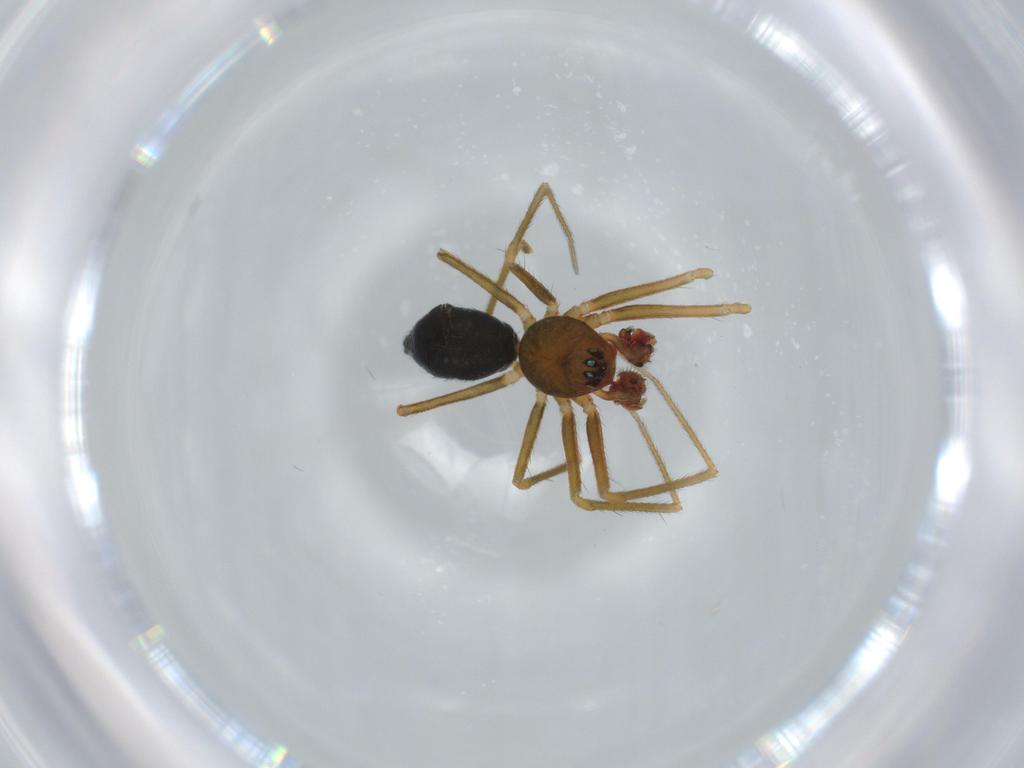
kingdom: Animalia
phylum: Arthropoda
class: Arachnida
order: Araneae
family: Linyphiidae
